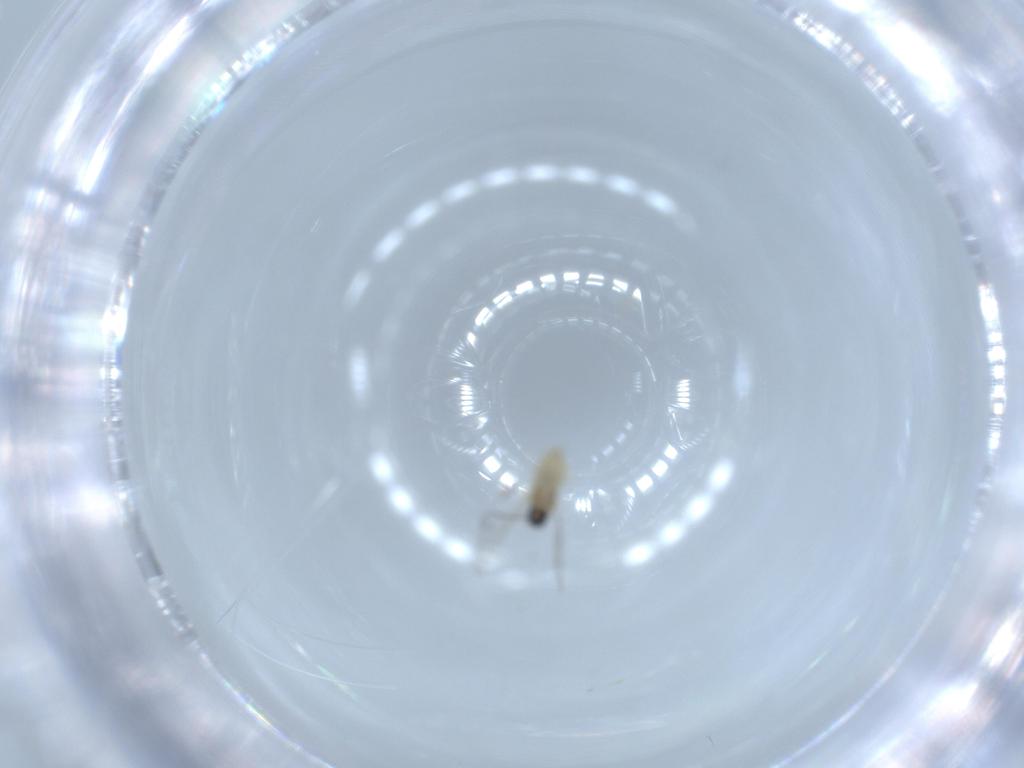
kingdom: Animalia
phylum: Arthropoda
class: Insecta
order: Diptera
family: Cecidomyiidae
